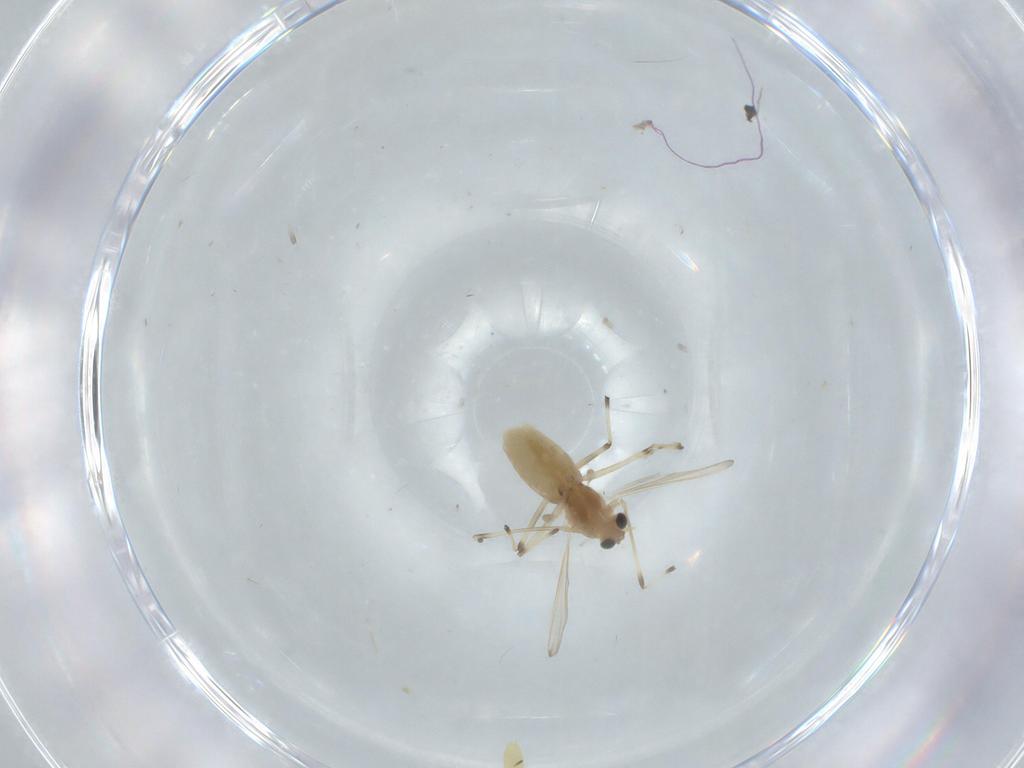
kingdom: Animalia
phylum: Arthropoda
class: Insecta
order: Diptera
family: Chironomidae
